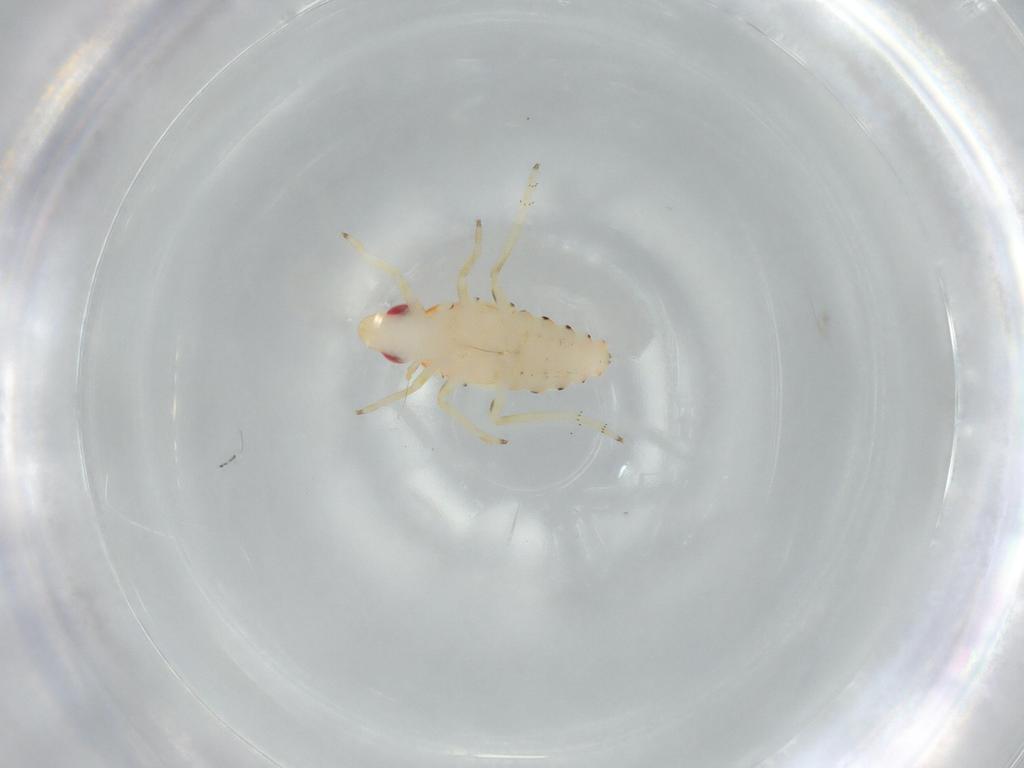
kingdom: Animalia
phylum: Arthropoda
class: Insecta
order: Hemiptera
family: Tropiduchidae
